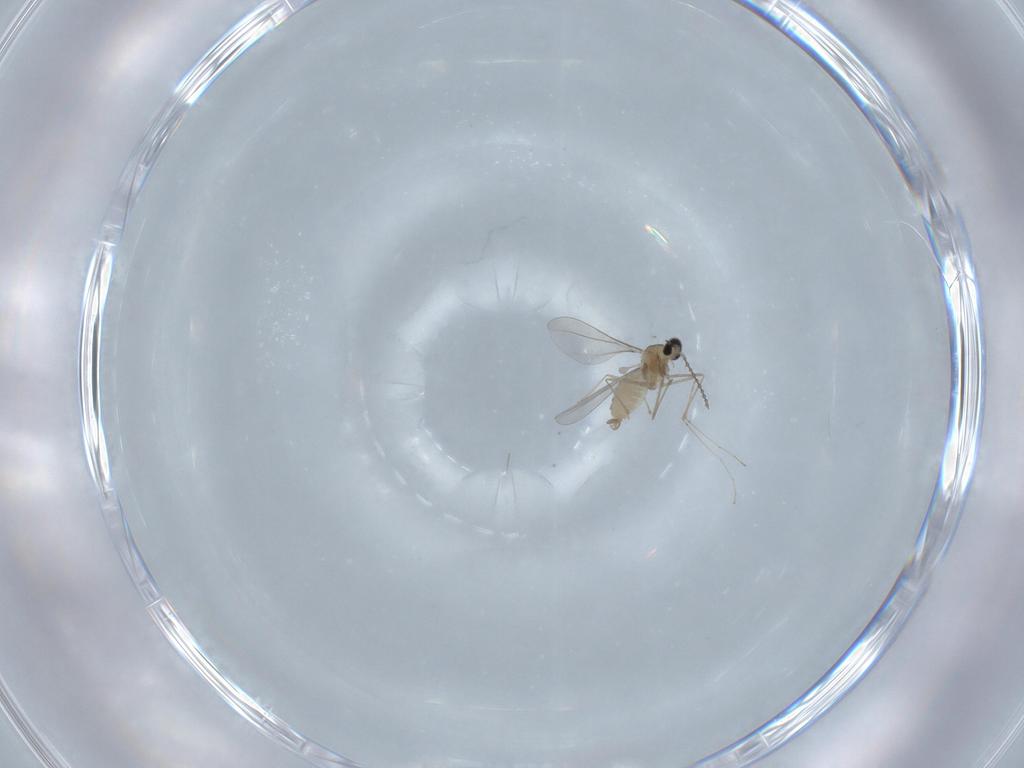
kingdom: Animalia
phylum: Arthropoda
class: Insecta
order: Diptera
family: Cecidomyiidae
